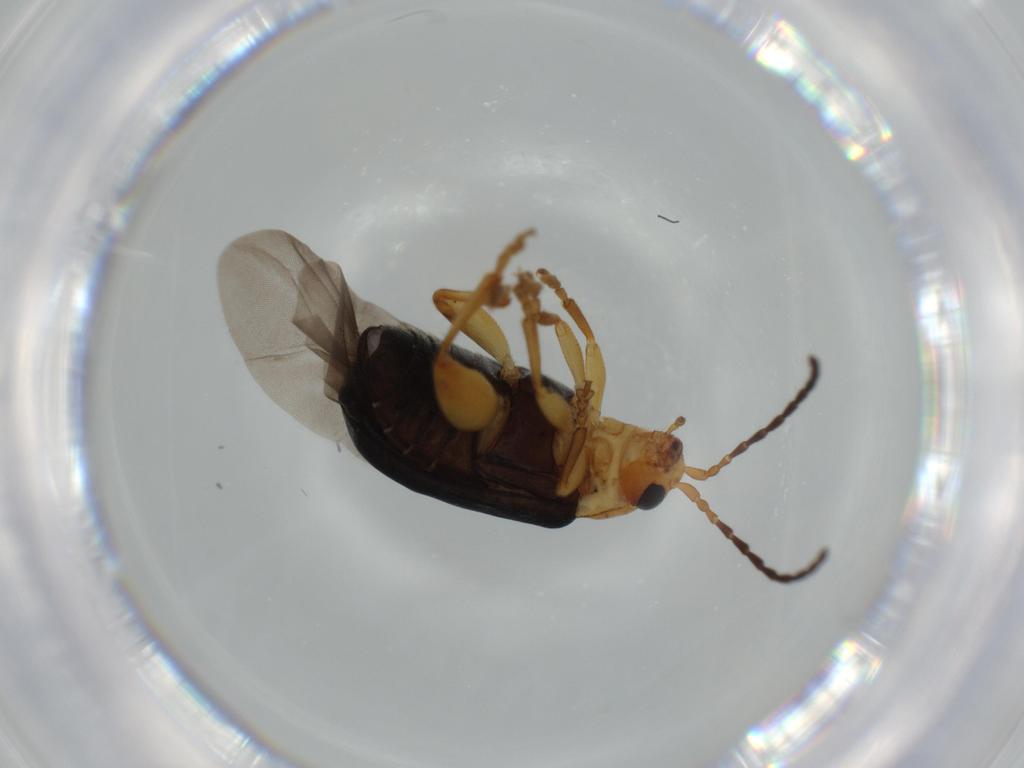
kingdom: Animalia
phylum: Arthropoda
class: Insecta
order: Coleoptera
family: Chrysomelidae
